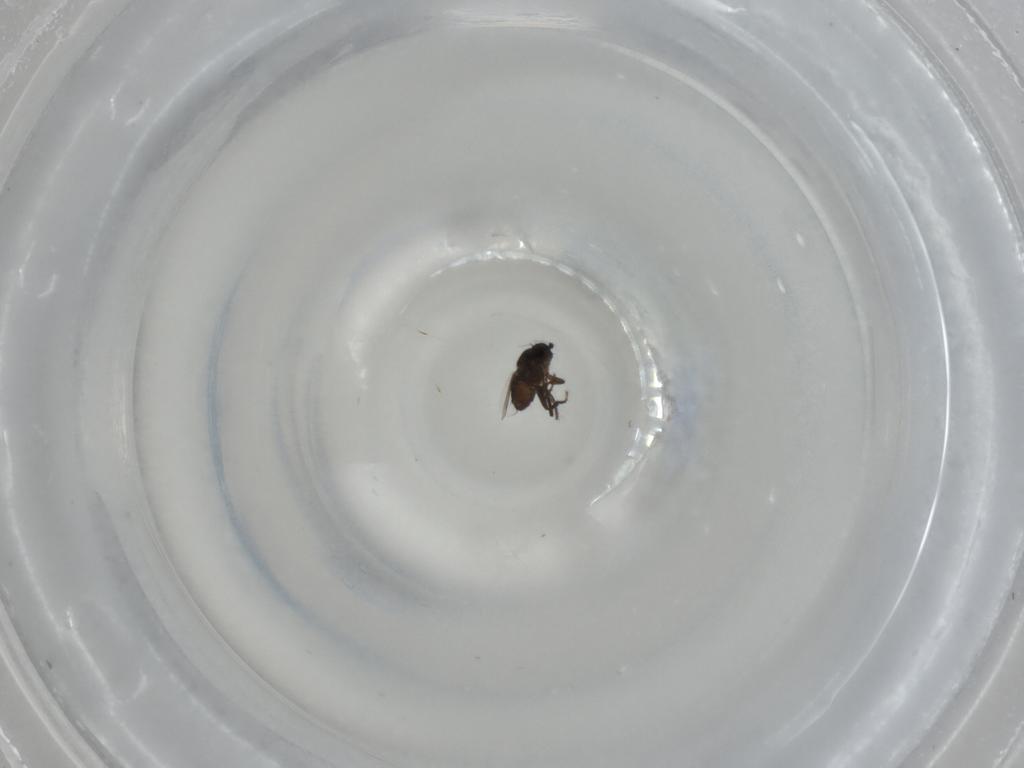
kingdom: Animalia
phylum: Arthropoda
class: Insecta
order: Diptera
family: Sphaeroceridae
